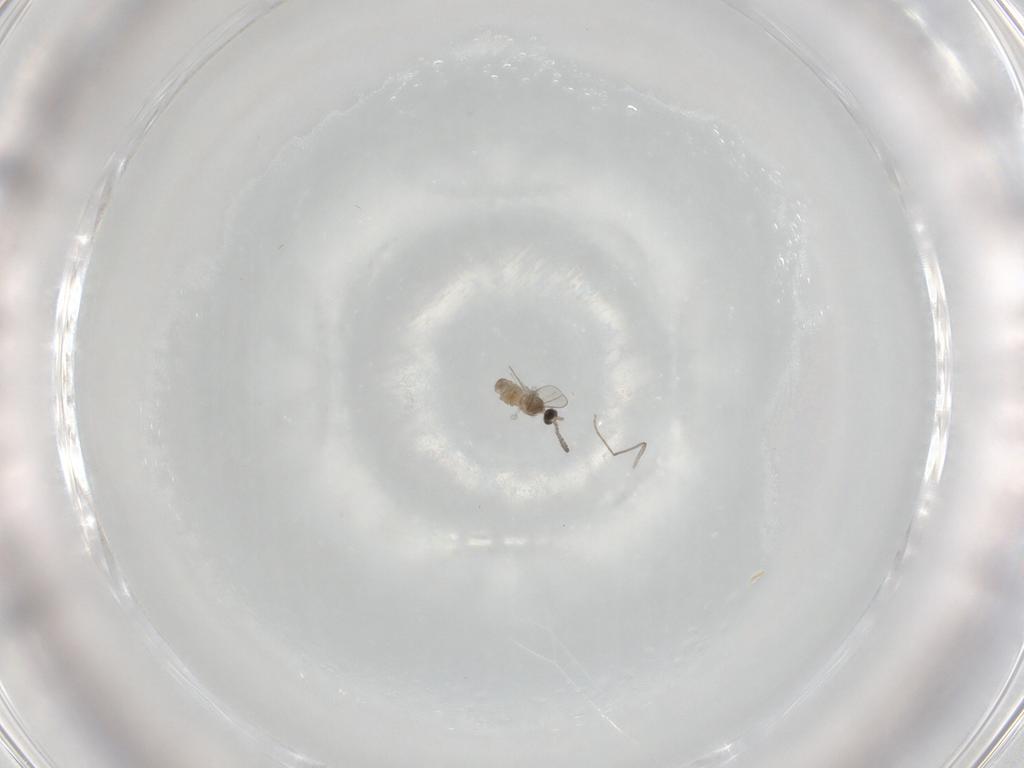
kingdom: Animalia
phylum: Arthropoda
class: Insecta
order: Diptera
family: Cecidomyiidae
